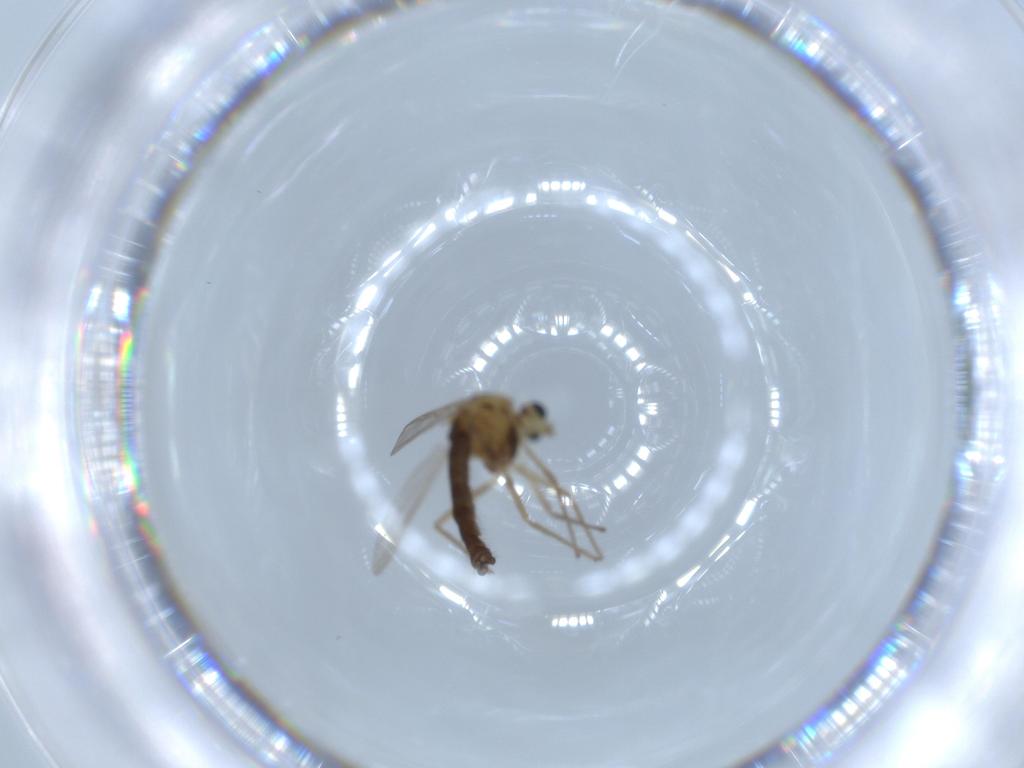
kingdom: Animalia
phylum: Arthropoda
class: Insecta
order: Diptera
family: Chironomidae
